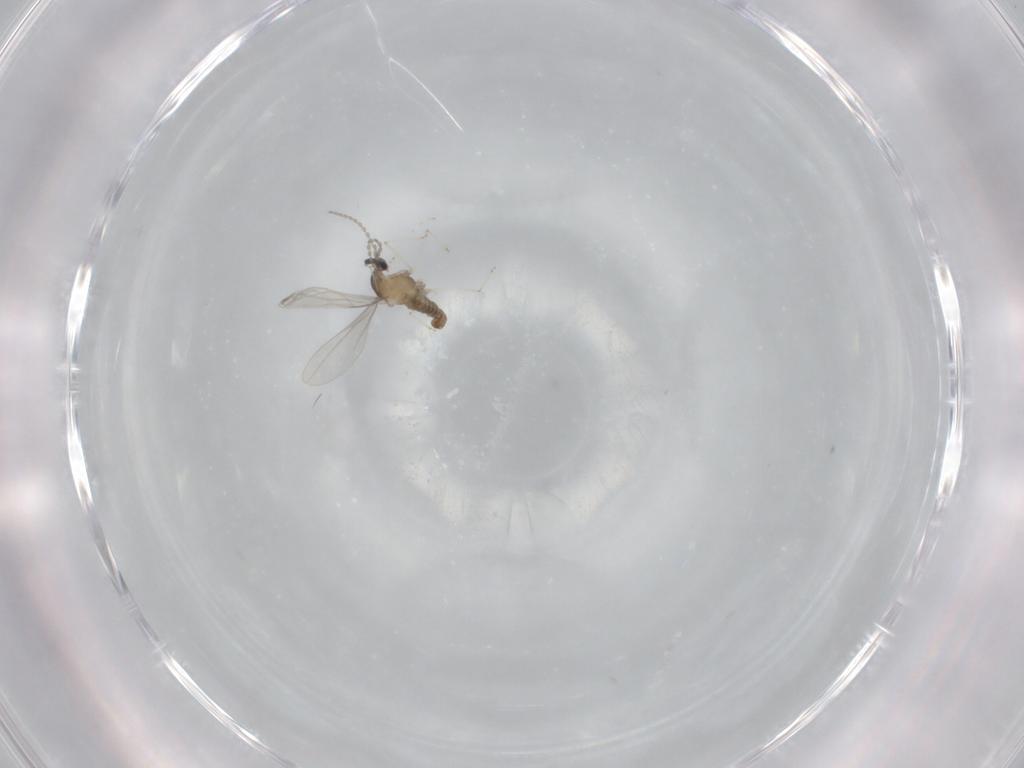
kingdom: Animalia
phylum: Arthropoda
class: Insecta
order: Diptera
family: Cecidomyiidae
